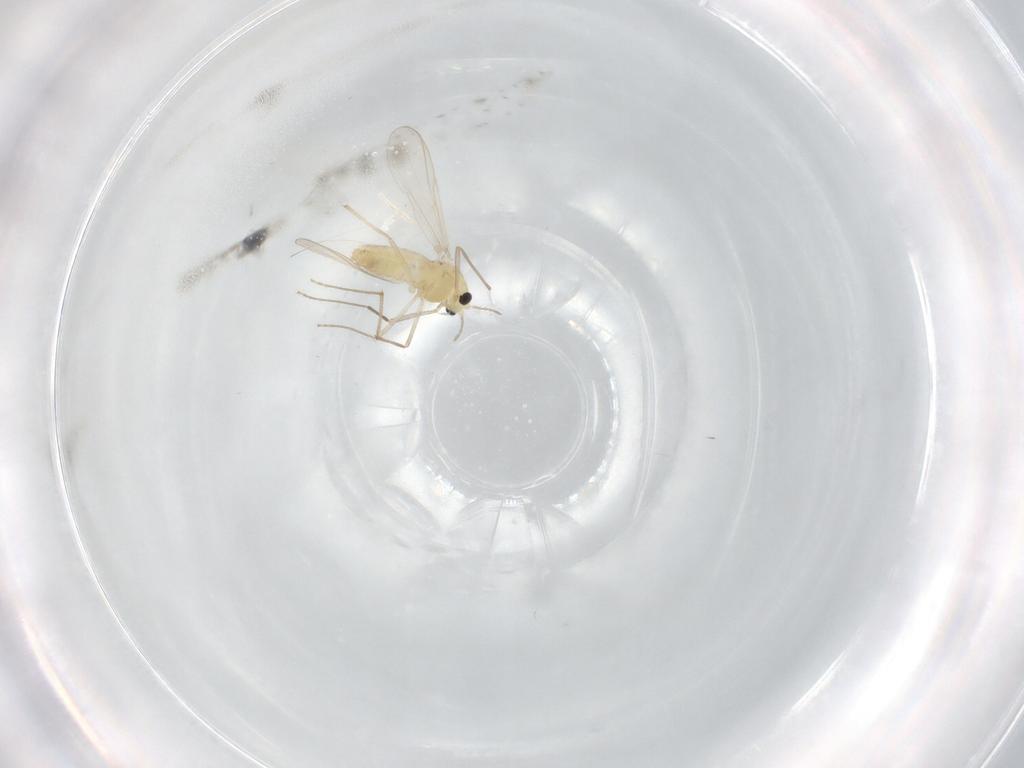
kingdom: Animalia
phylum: Arthropoda
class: Insecta
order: Diptera
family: Chironomidae
